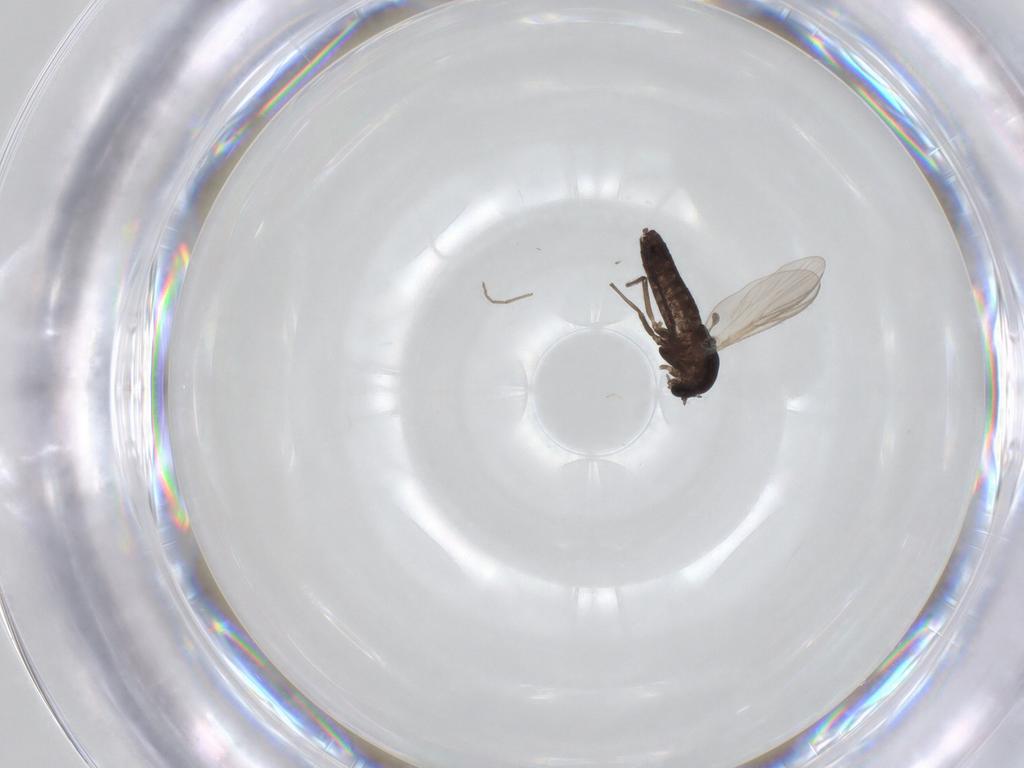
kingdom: Animalia
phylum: Arthropoda
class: Insecta
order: Diptera
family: Chironomidae
